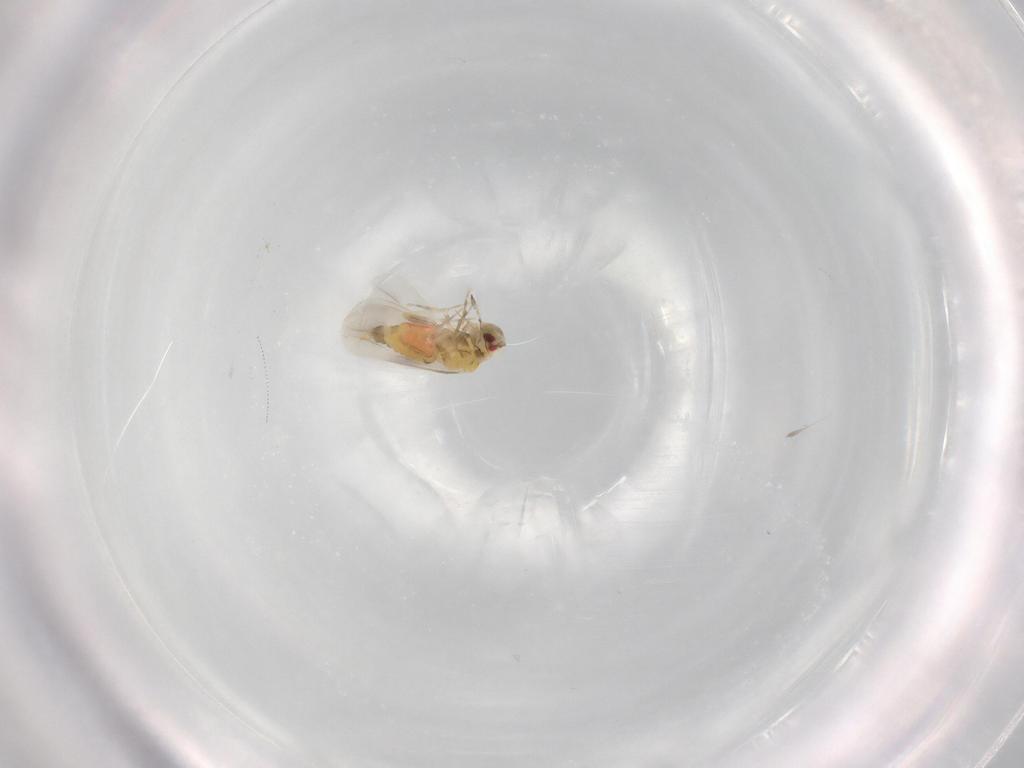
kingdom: Animalia
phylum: Arthropoda
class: Insecta
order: Hemiptera
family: Aleyrodidae
